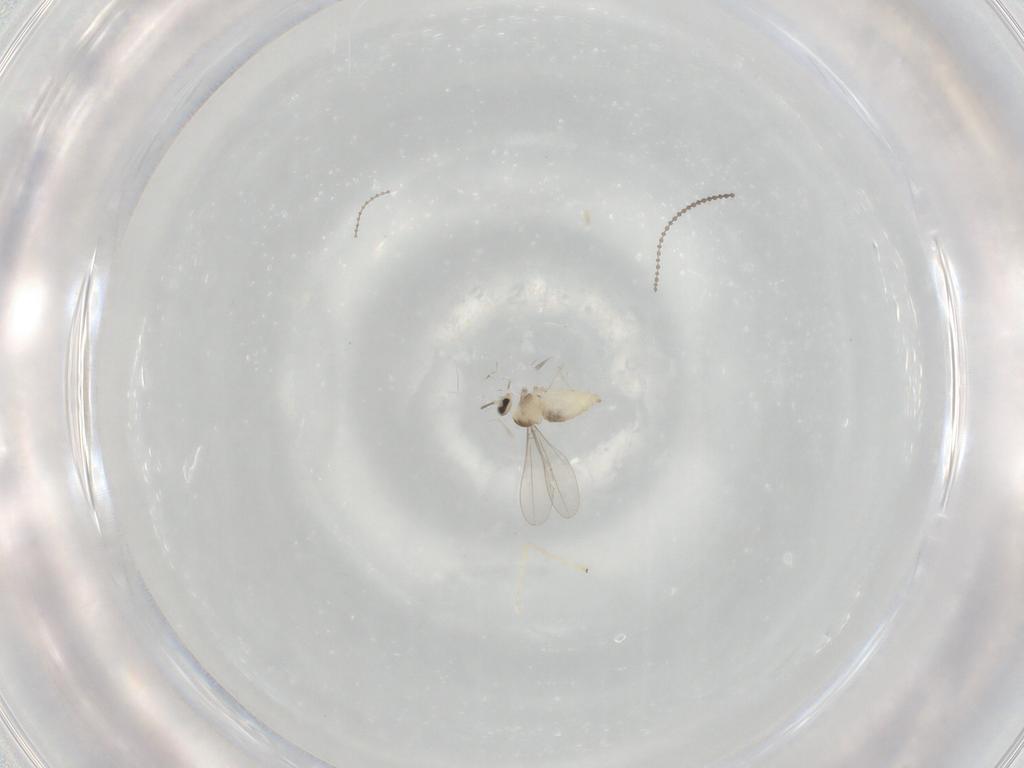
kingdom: Animalia
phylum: Arthropoda
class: Insecta
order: Diptera
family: Cecidomyiidae
